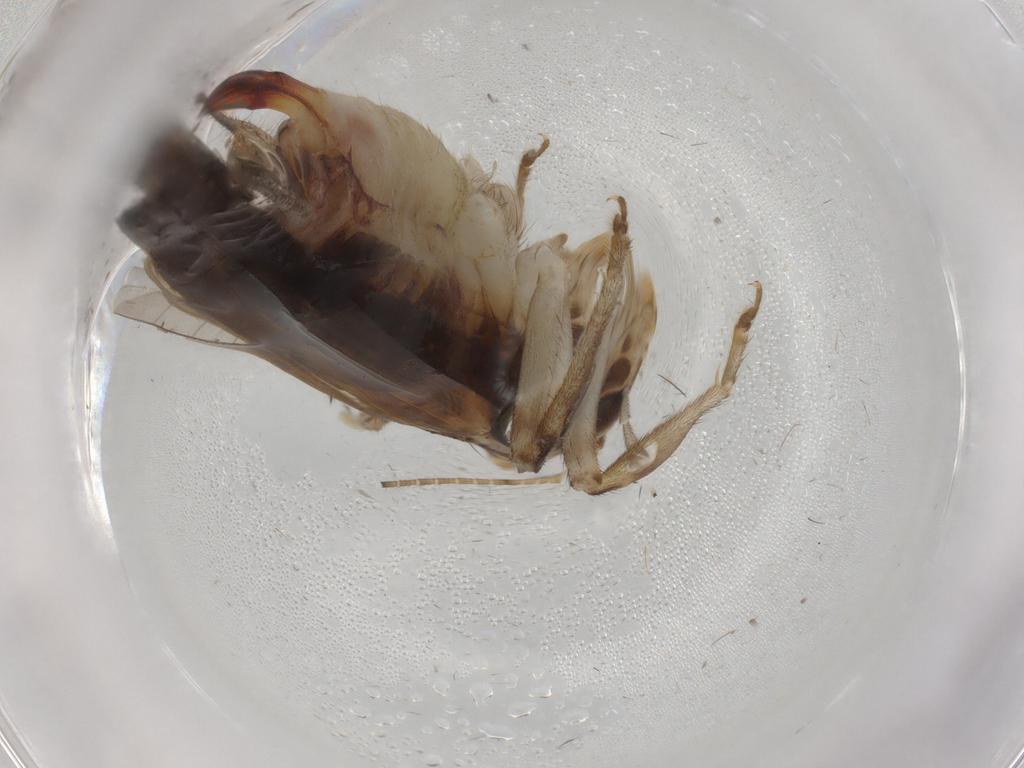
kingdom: Animalia
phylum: Arthropoda
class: Insecta
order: Orthoptera
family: Trigonidiidae
